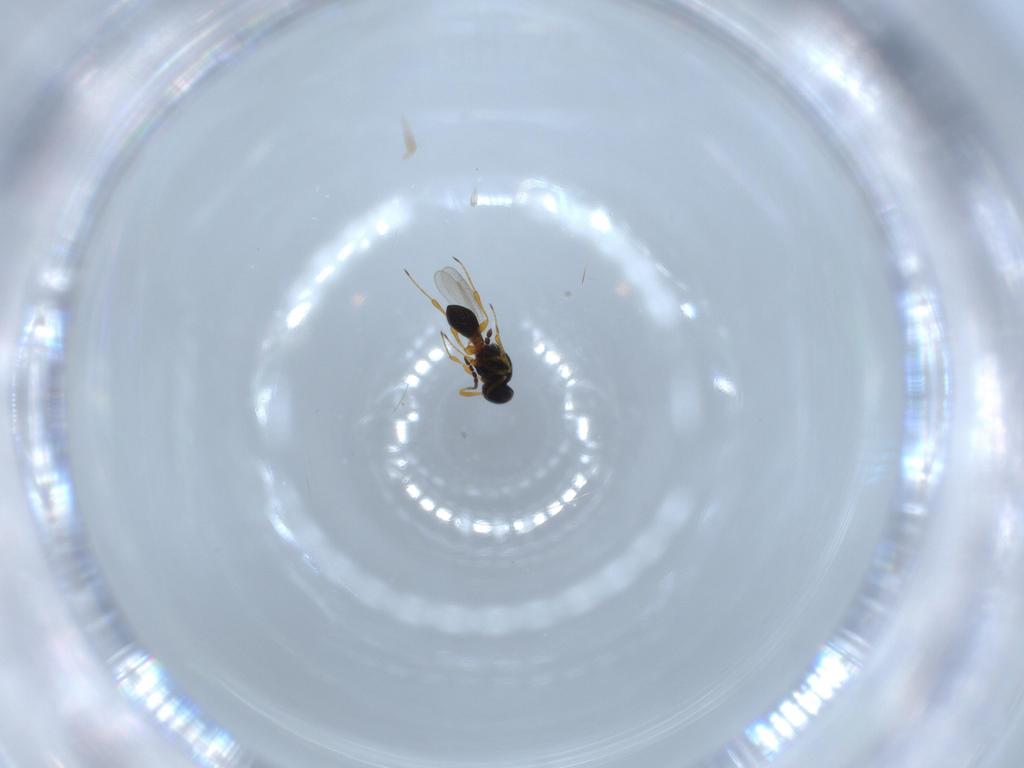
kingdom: Animalia
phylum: Arthropoda
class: Insecta
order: Hymenoptera
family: Platygastridae
